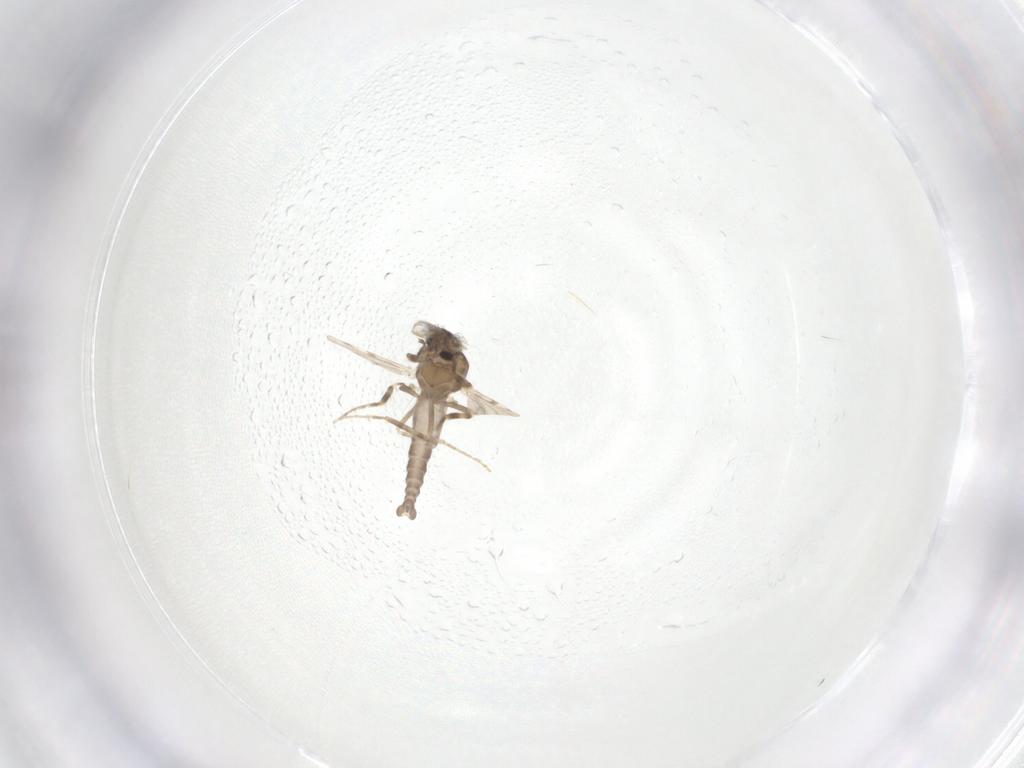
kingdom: Animalia
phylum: Arthropoda
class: Insecta
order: Diptera
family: Ceratopogonidae
